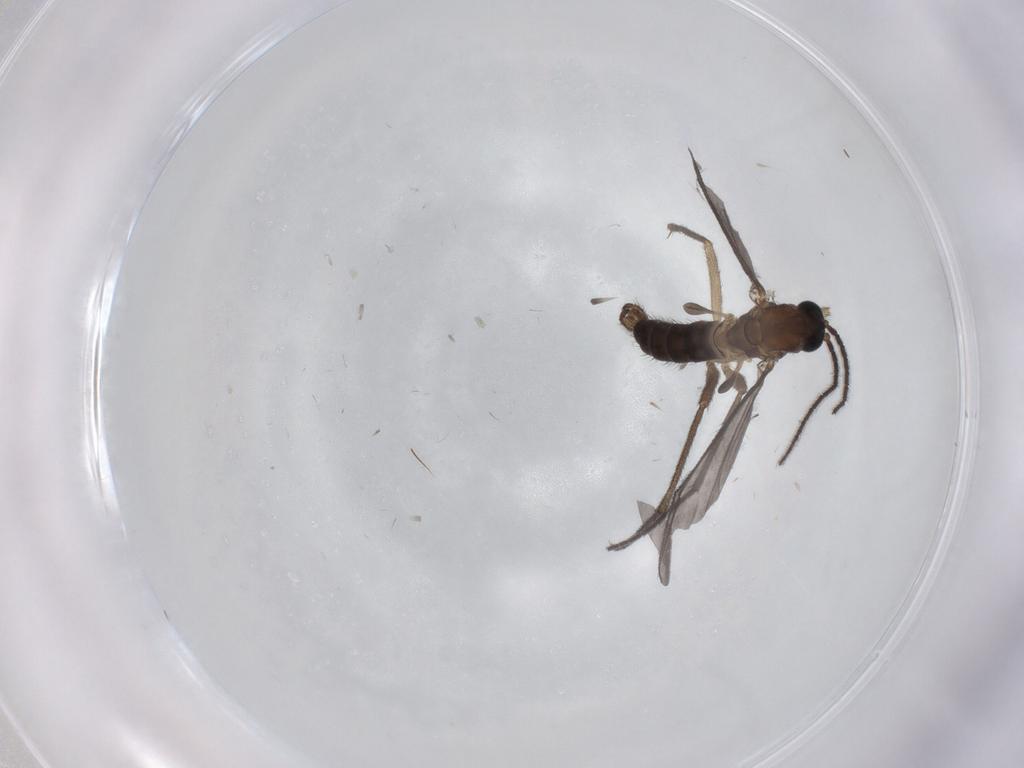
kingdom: Animalia
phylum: Arthropoda
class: Insecta
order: Diptera
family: Sciaridae
